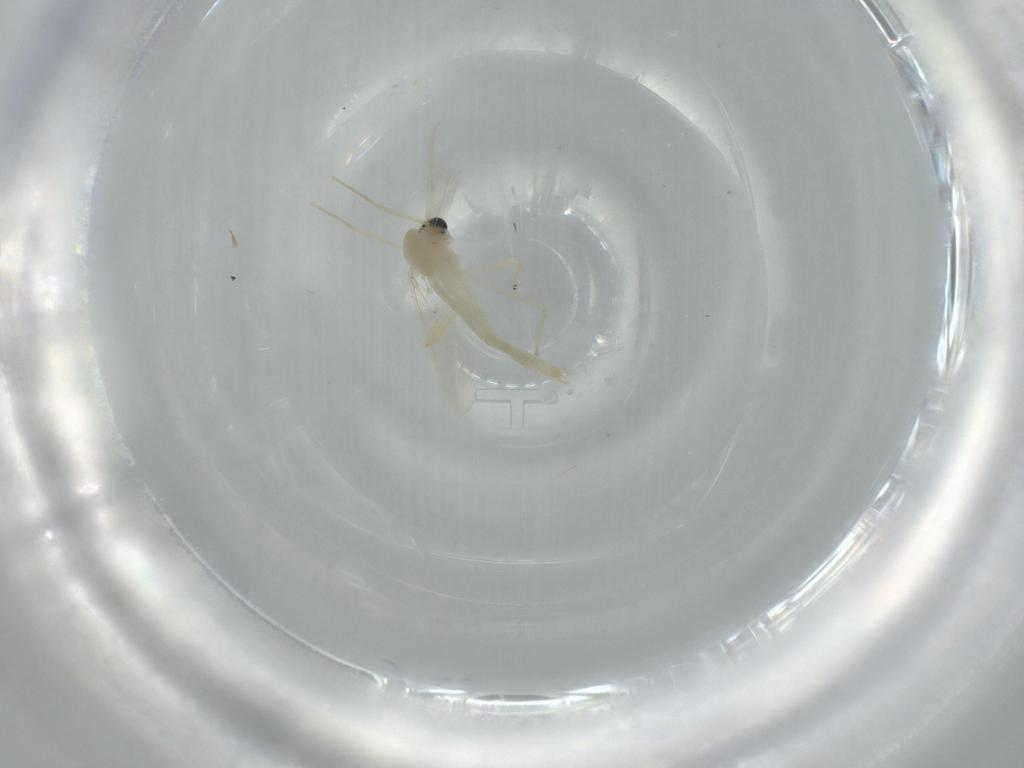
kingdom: Animalia
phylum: Arthropoda
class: Insecta
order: Diptera
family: Chironomidae
